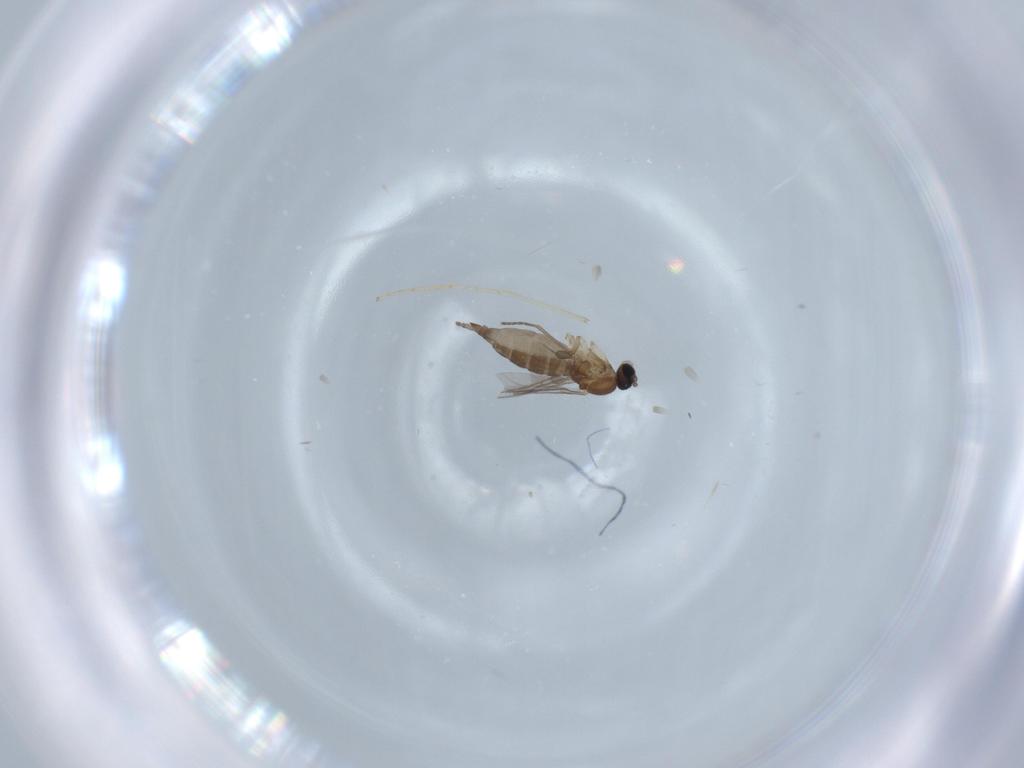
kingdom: Animalia
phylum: Arthropoda
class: Insecta
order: Diptera
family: Sciaridae
